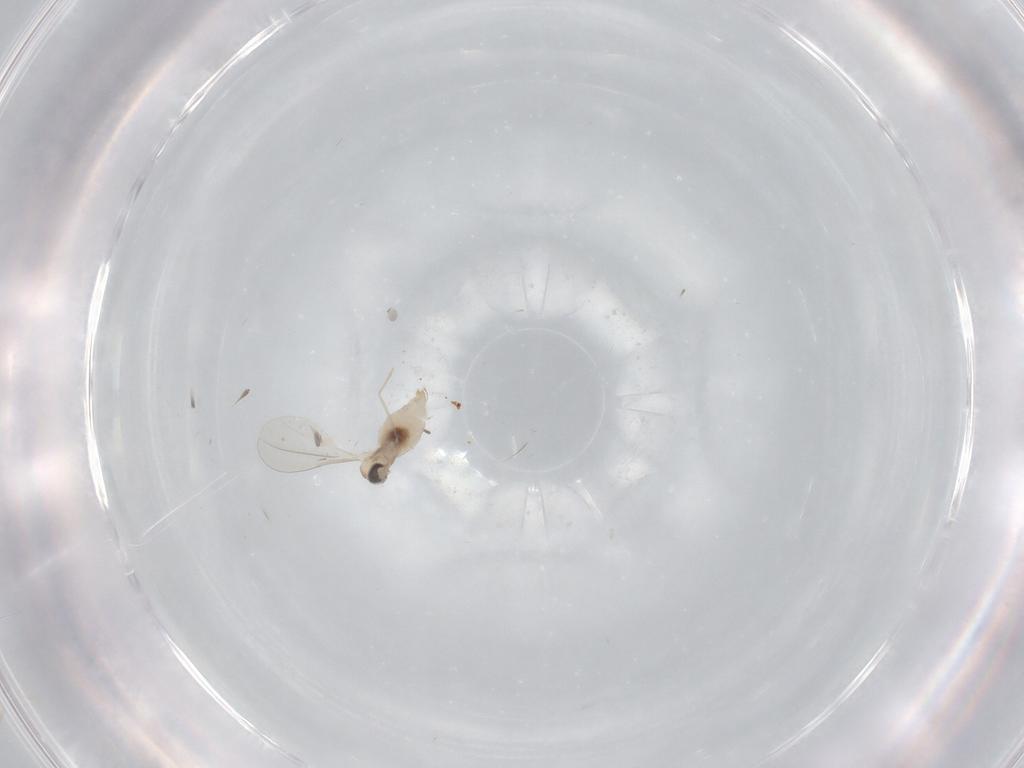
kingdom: Animalia
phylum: Arthropoda
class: Insecta
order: Diptera
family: Cecidomyiidae
